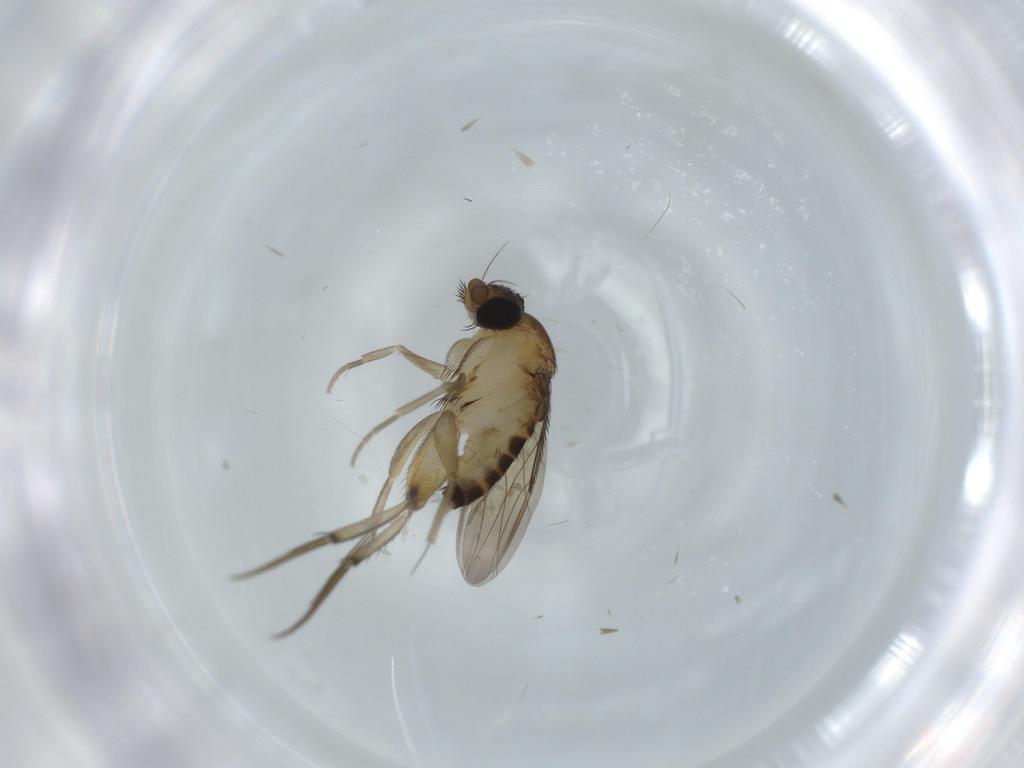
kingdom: Animalia
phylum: Arthropoda
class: Insecta
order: Diptera
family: Phoridae
